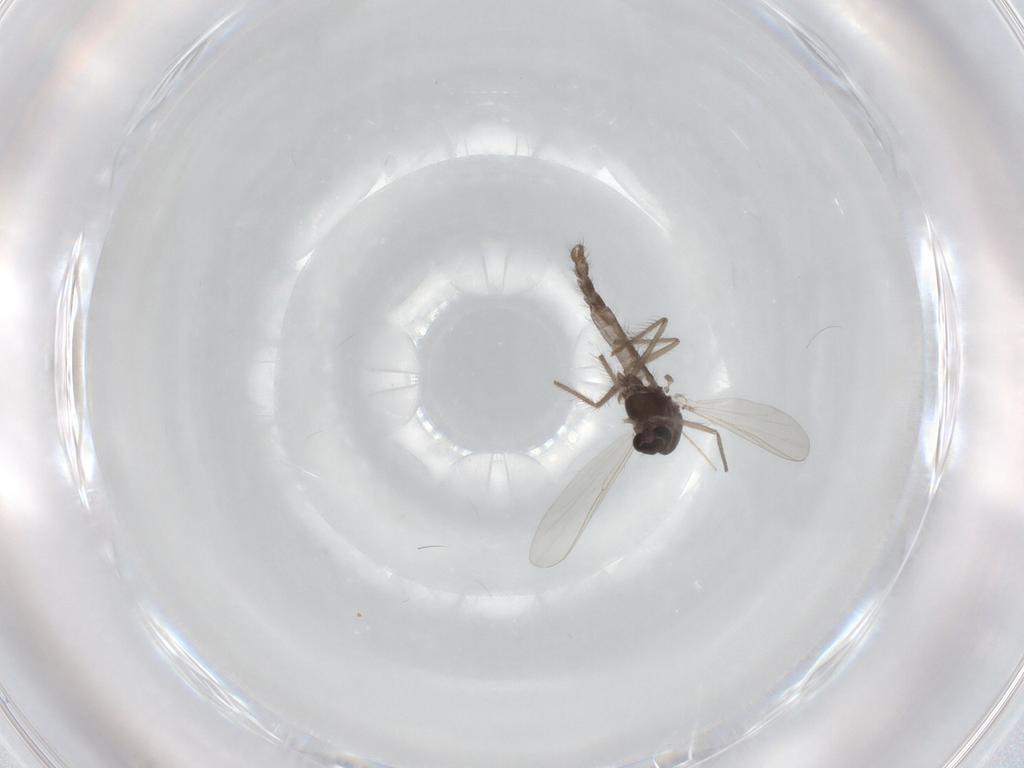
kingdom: Animalia
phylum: Arthropoda
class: Insecta
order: Diptera
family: Chironomidae
